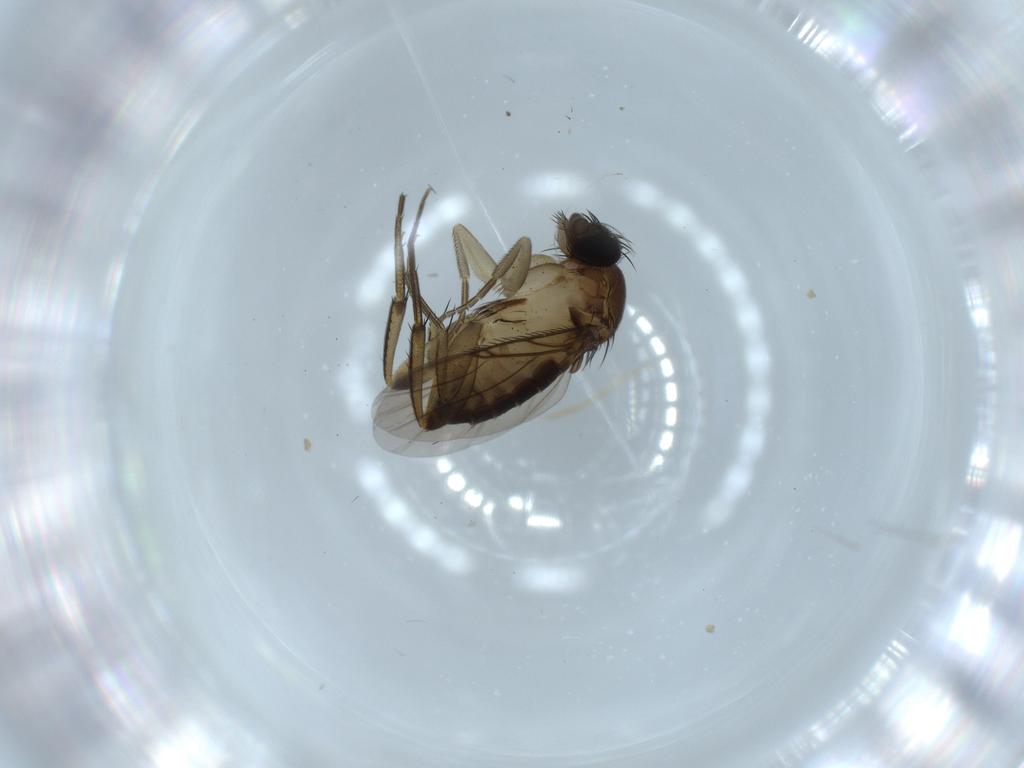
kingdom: Animalia
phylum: Arthropoda
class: Insecta
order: Diptera
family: Phoridae
